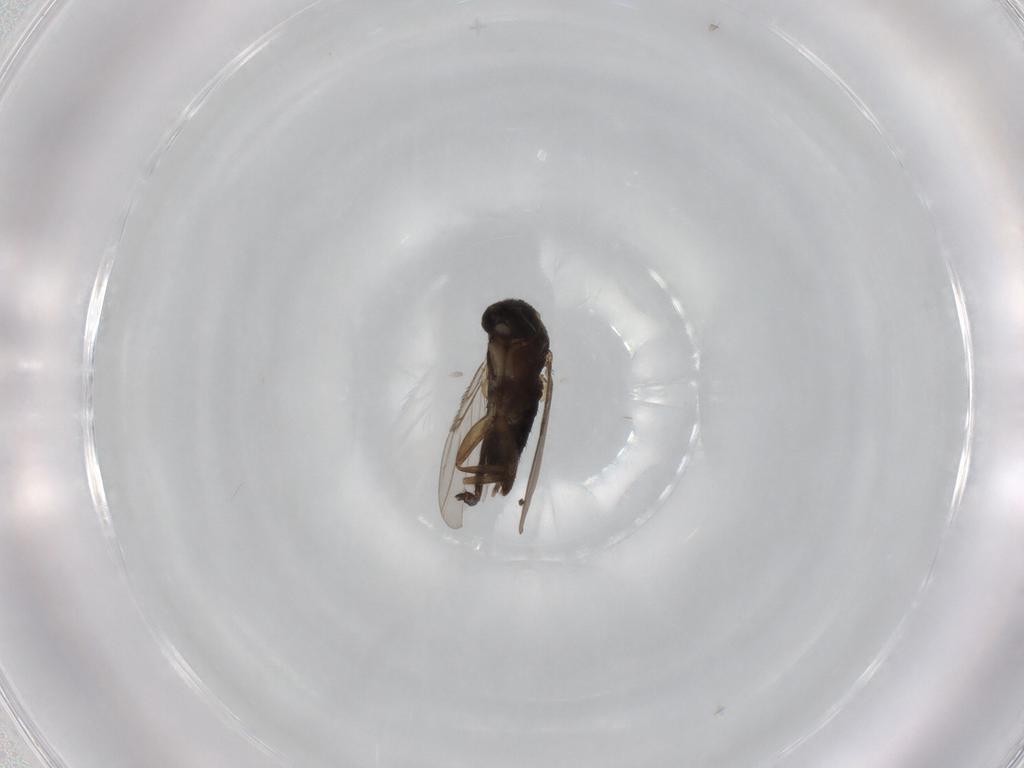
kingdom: Animalia
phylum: Arthropoda
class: Insecta
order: Diptera
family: Phoridae
